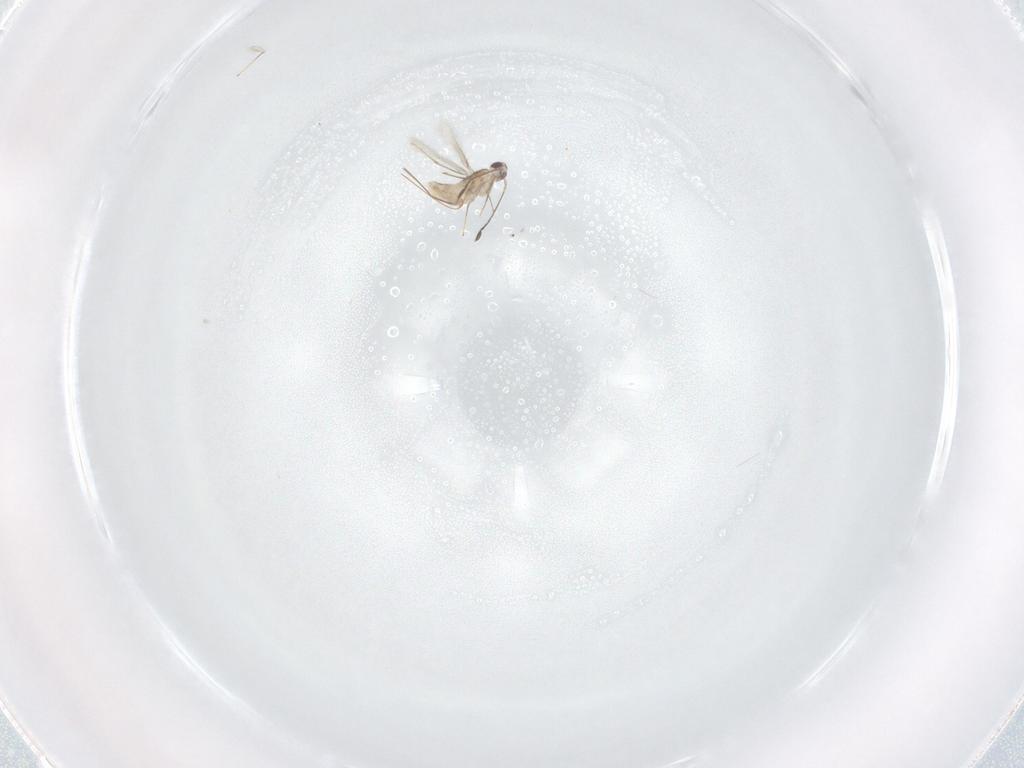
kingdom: Animalia
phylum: Arthropoda
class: Insecta
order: Hymenoptera
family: Mymaridae
